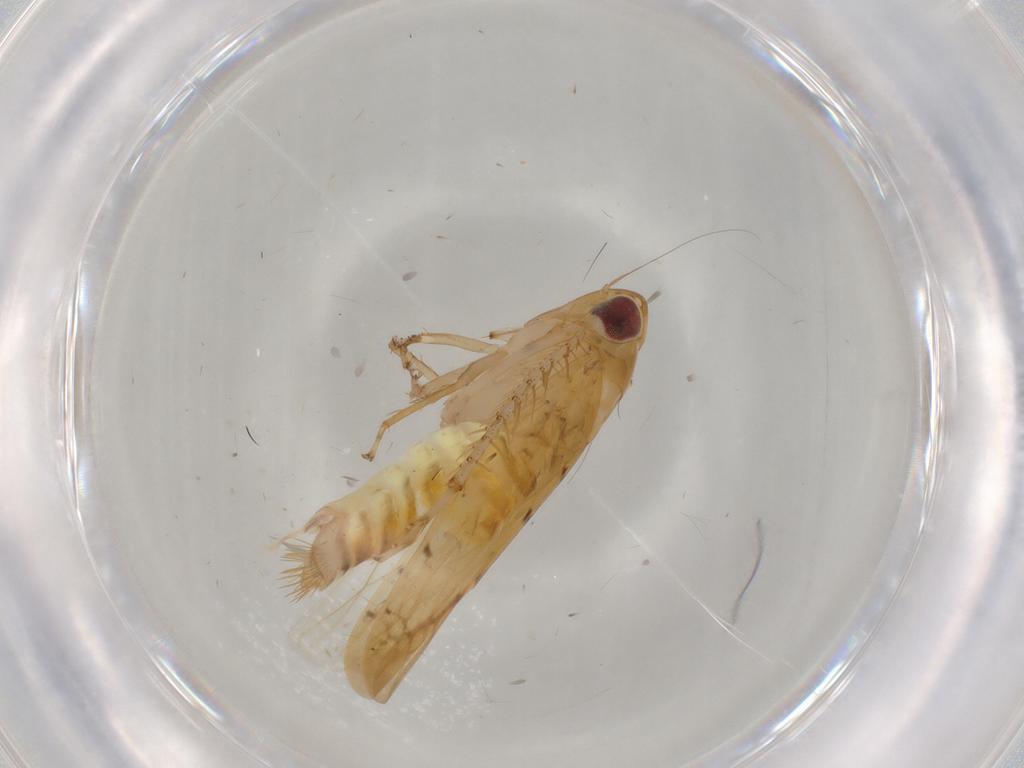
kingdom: Animalia
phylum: Arthropoda
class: Insecta
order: Hemiptera
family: Cicadellidae
